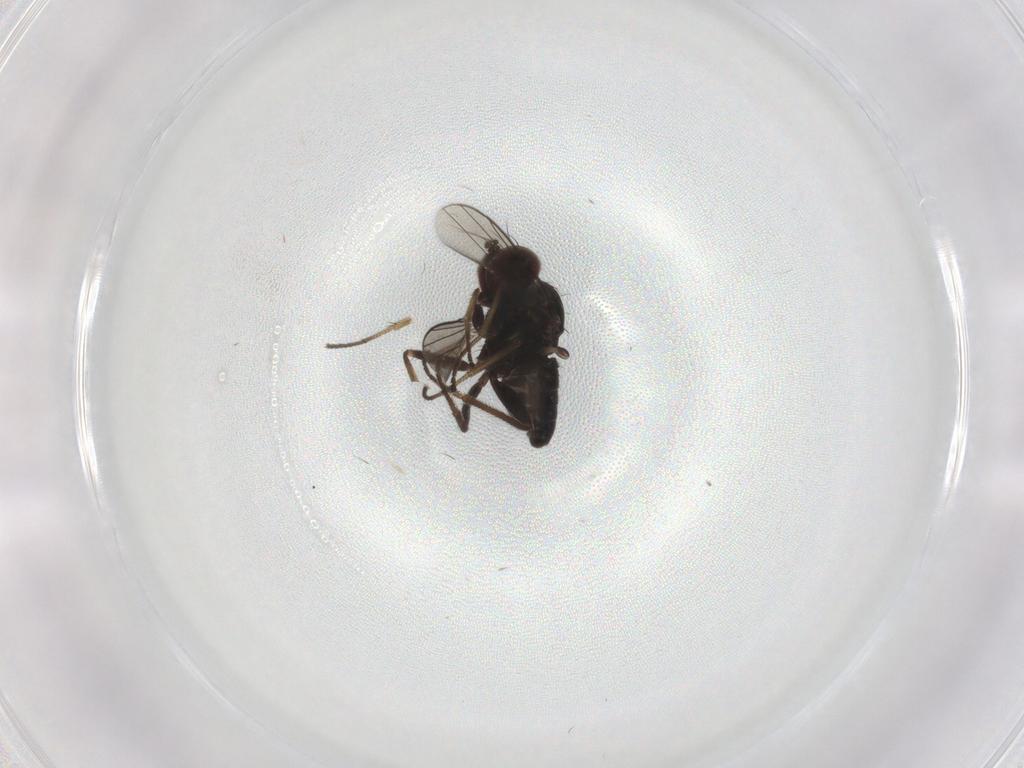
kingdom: Animalia
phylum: Arthropoda
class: Insecta
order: Diptera
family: Dolichopodidae
